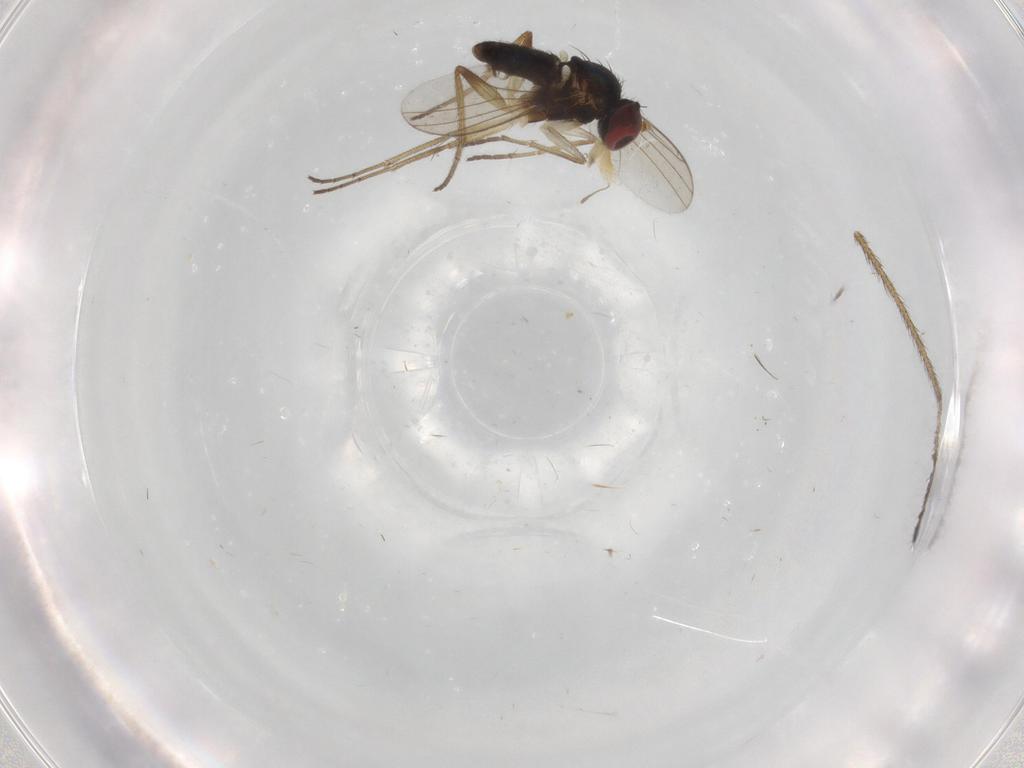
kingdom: Animalia
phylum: Arthropoda
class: Insecta
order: Diptera
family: Dolichopodidae
